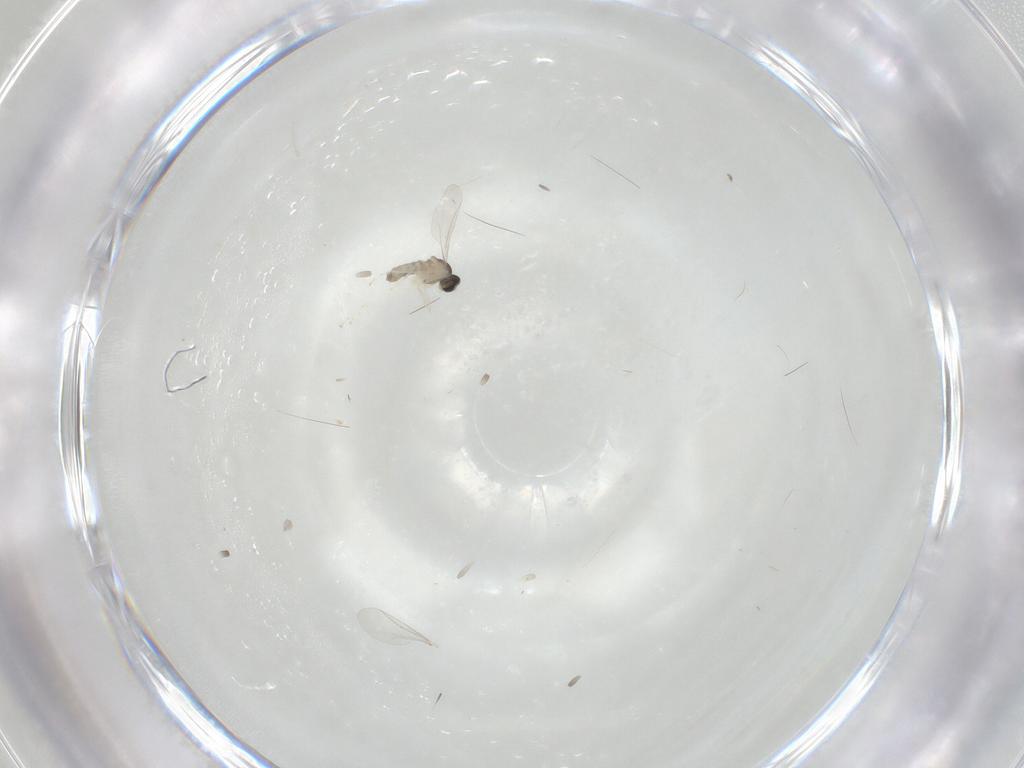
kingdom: Animalia
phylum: Arthropoda
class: Insecta
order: Diptera
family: Cecidomyiidae
